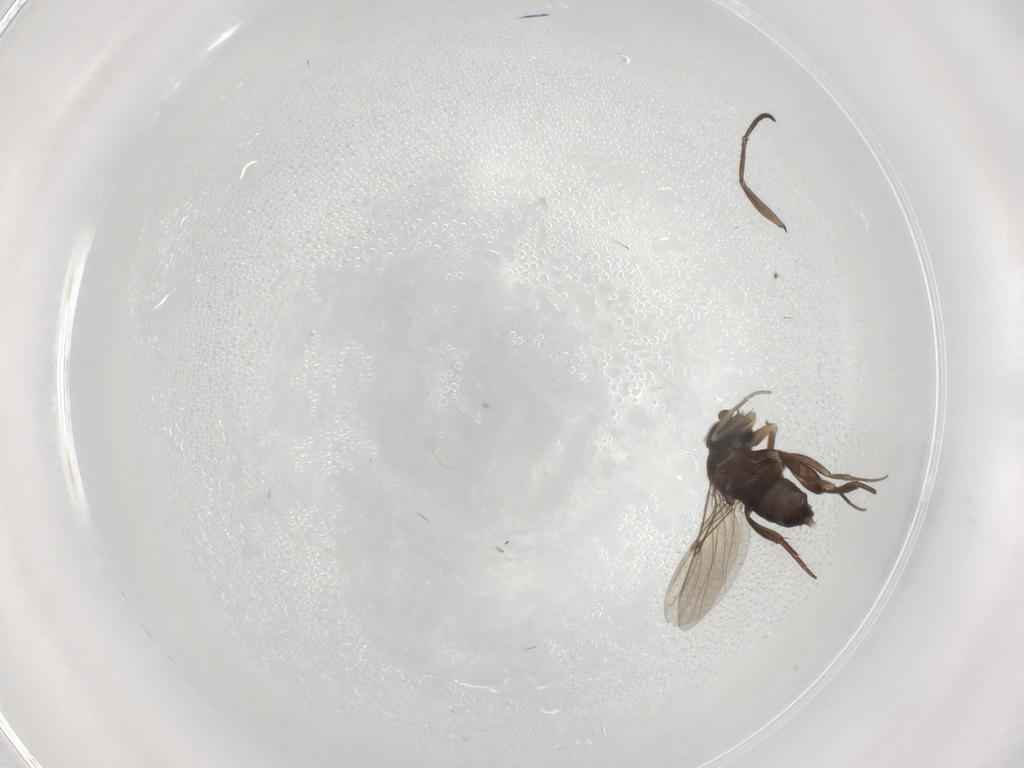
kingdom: Animalia
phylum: Arthropoda
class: Insecta
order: Diptera
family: Sciaridae
